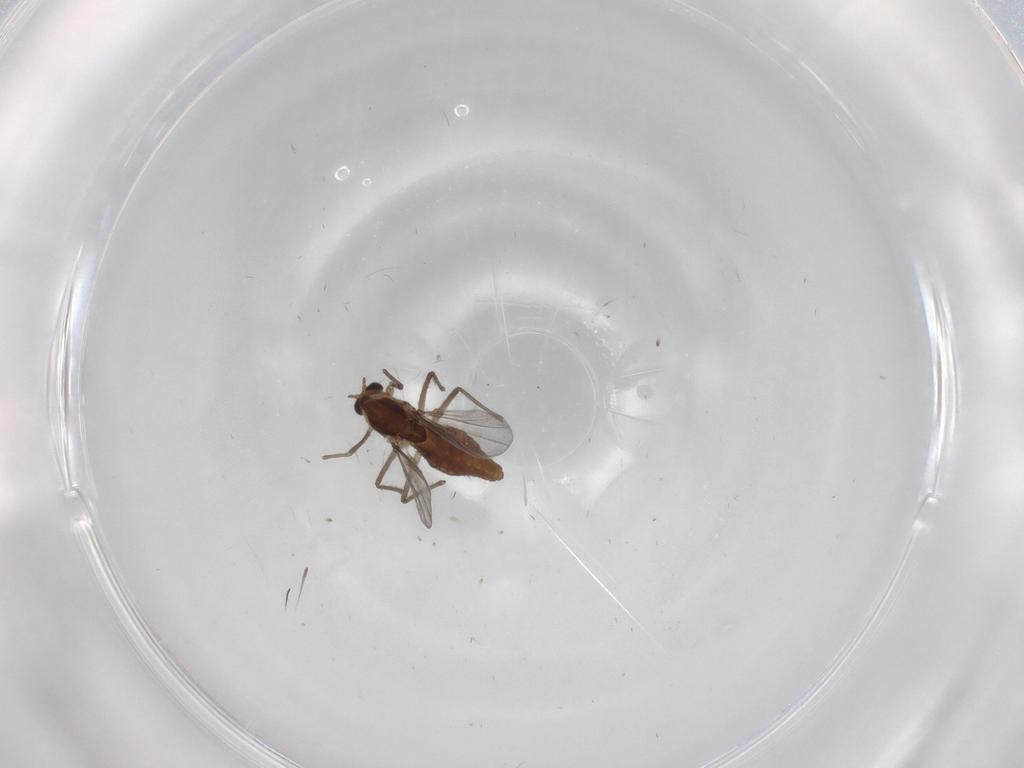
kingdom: Animalia
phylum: Arthropoda
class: Insecta
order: Diptera
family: Chironomidae
